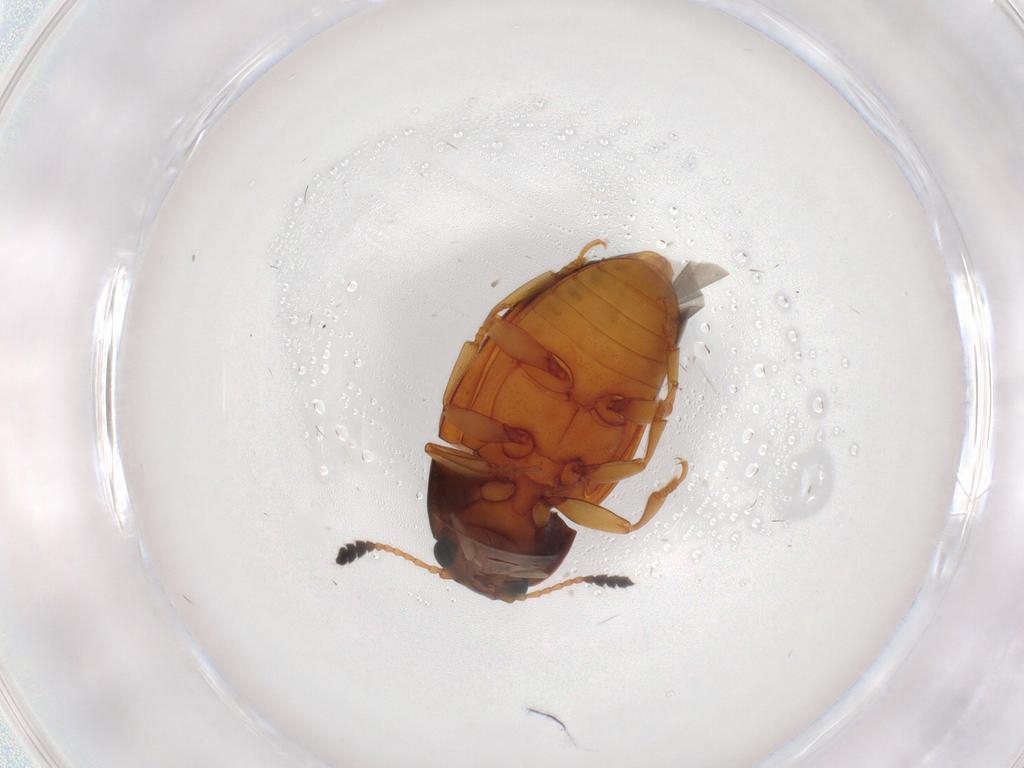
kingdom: Animalia
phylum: Arthropoda
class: Insecta
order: Coleoptera
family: Erotylidae
